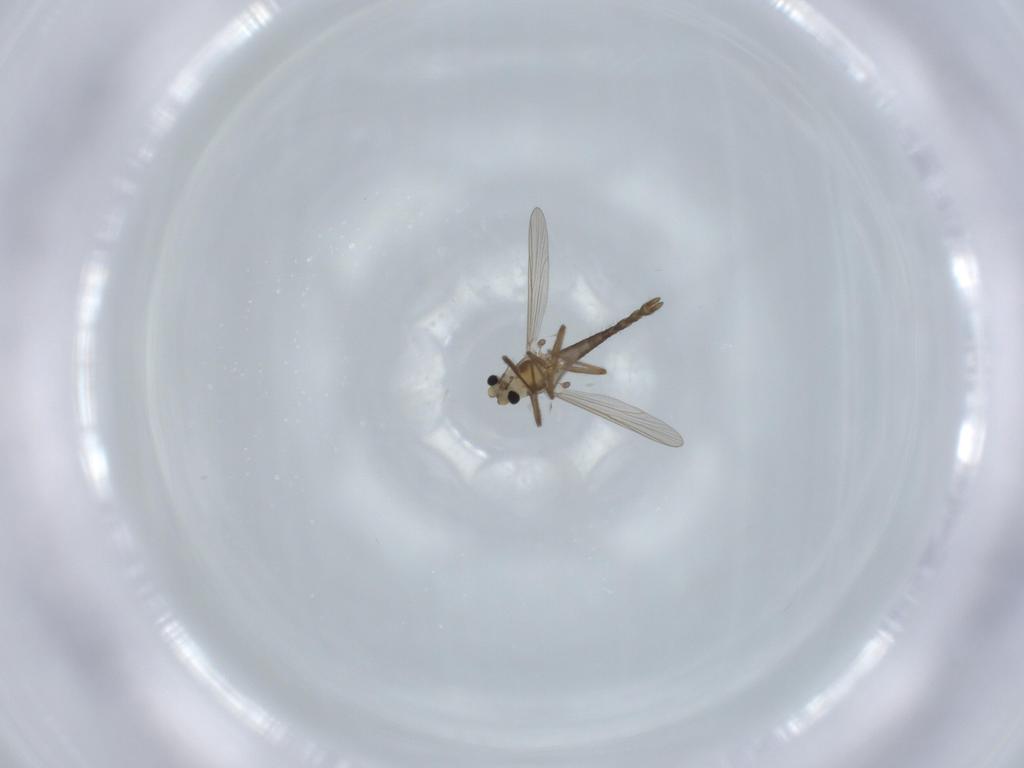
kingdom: Animalia
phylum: Arthropoda
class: Insecta
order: Diptera
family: Chironomidae
